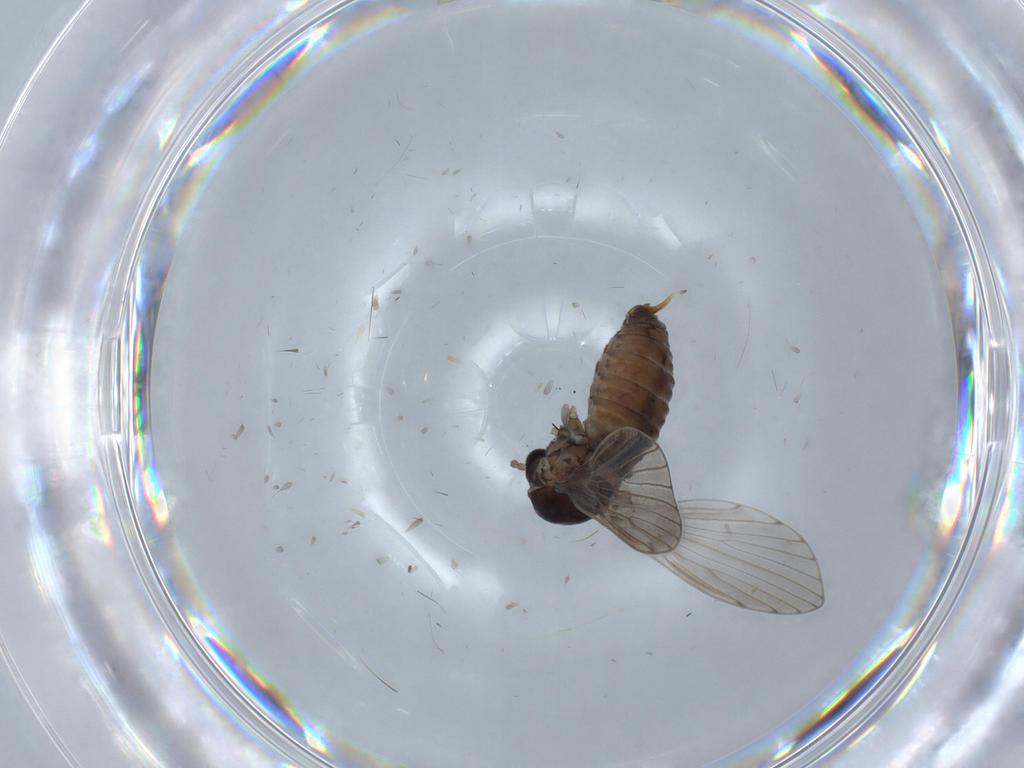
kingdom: Animalia
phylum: Arthropoda
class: Insecta
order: Diptera
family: Psychodidae
